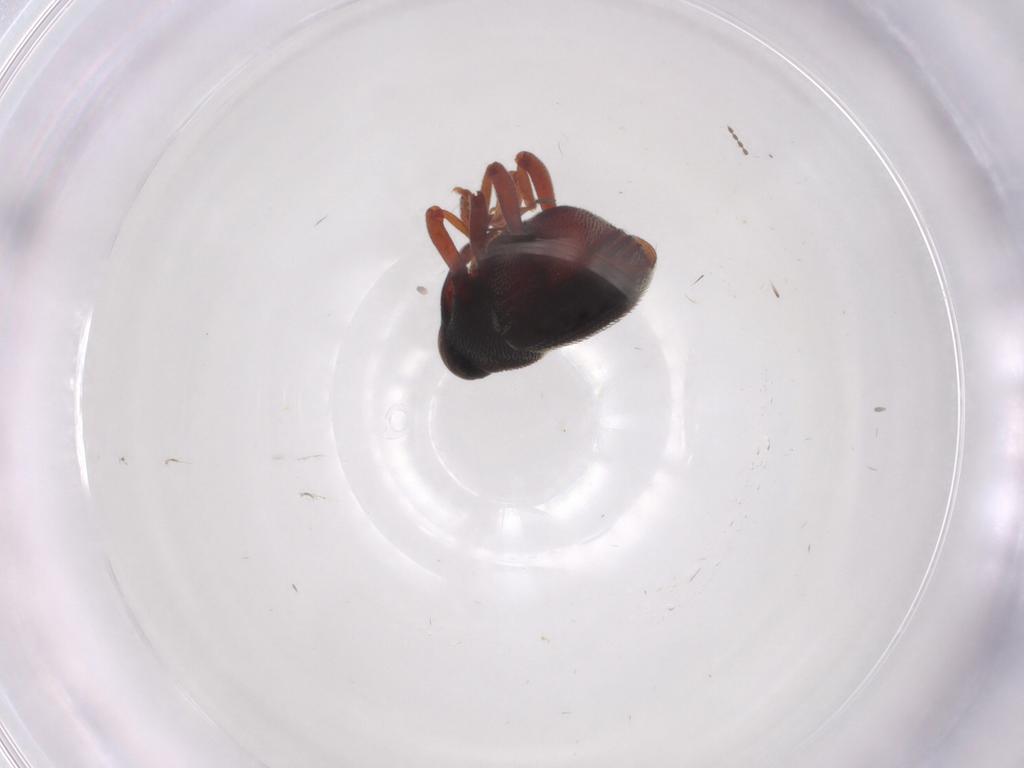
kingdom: Animalia
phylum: Arthropoda
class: Insecta
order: Coleoptera
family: Curculionidae
